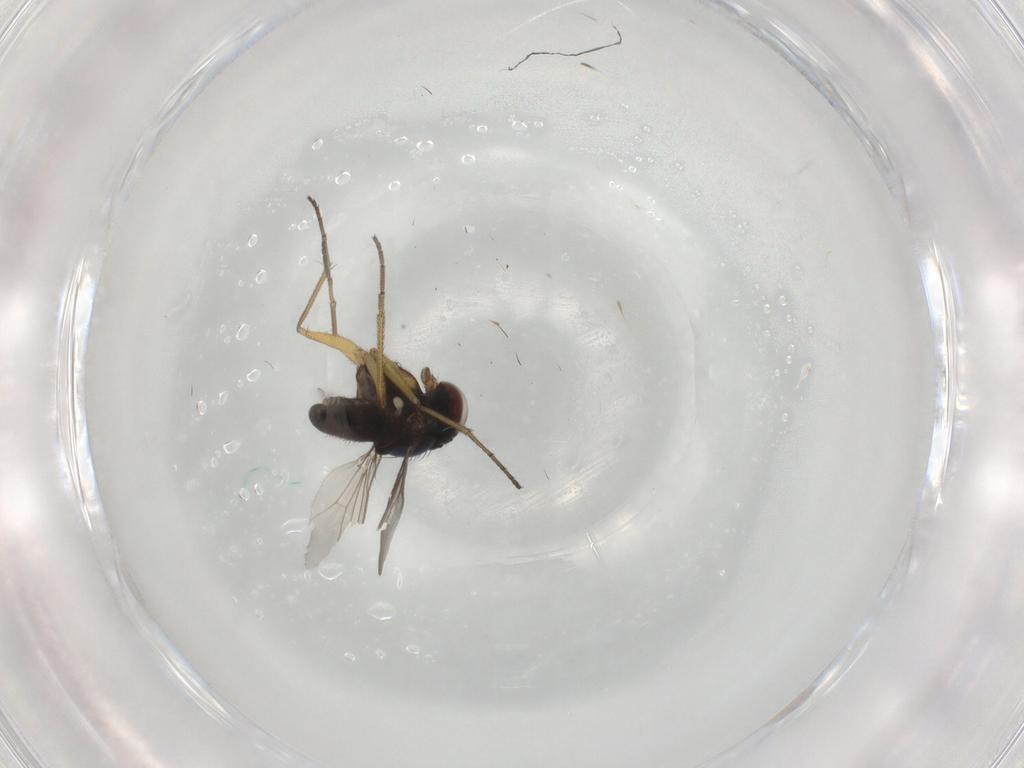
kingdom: Animalia
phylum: Arthropoda
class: Insecta
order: Diptera
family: Dolichopodidae
